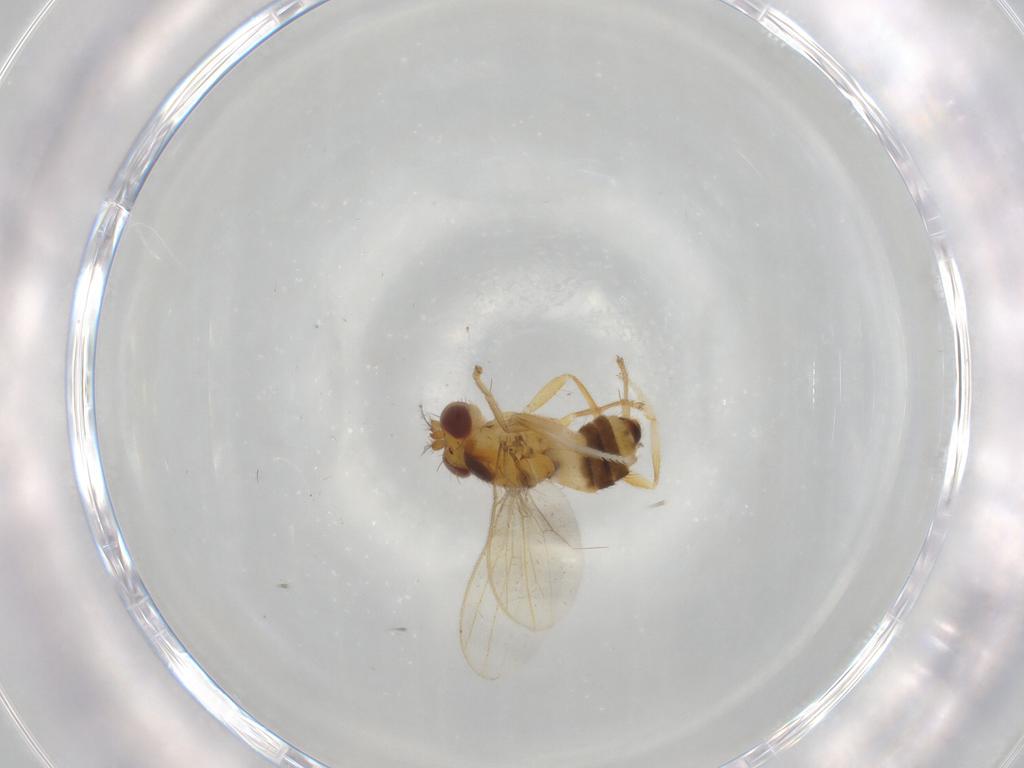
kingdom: Animalia
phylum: Arthropoda
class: Insecta
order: Diptera
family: Periscelididae
